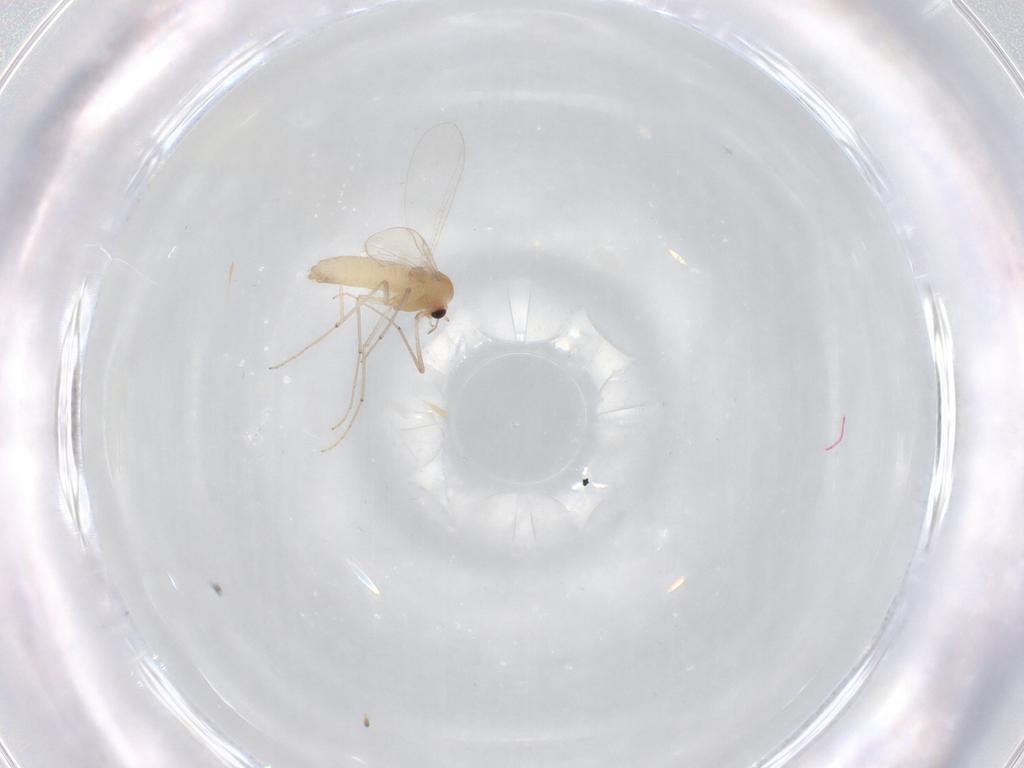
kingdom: Animalia
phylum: Arthropoda
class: Insecta
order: Diptera
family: Chironomidae
